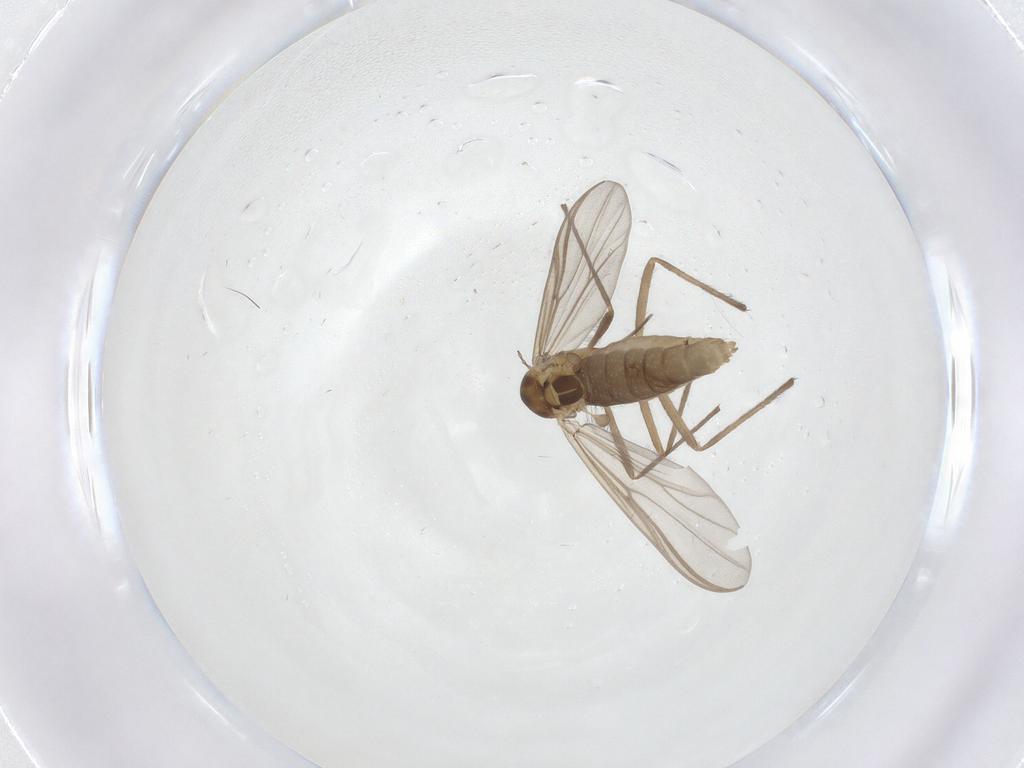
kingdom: Animalia
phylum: Arthropoda
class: Insecta
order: Diptera
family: Chironomidae
